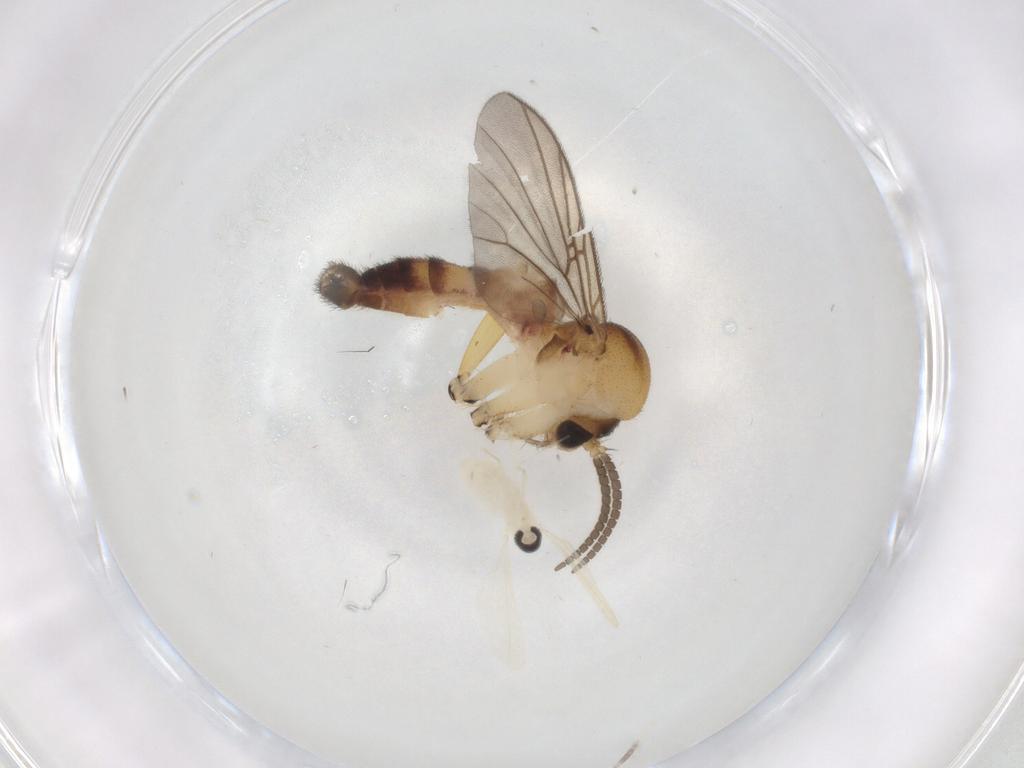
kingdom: Animalia
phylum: Arthropoda
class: Insecta
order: Diptera
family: Mycetophilidae
